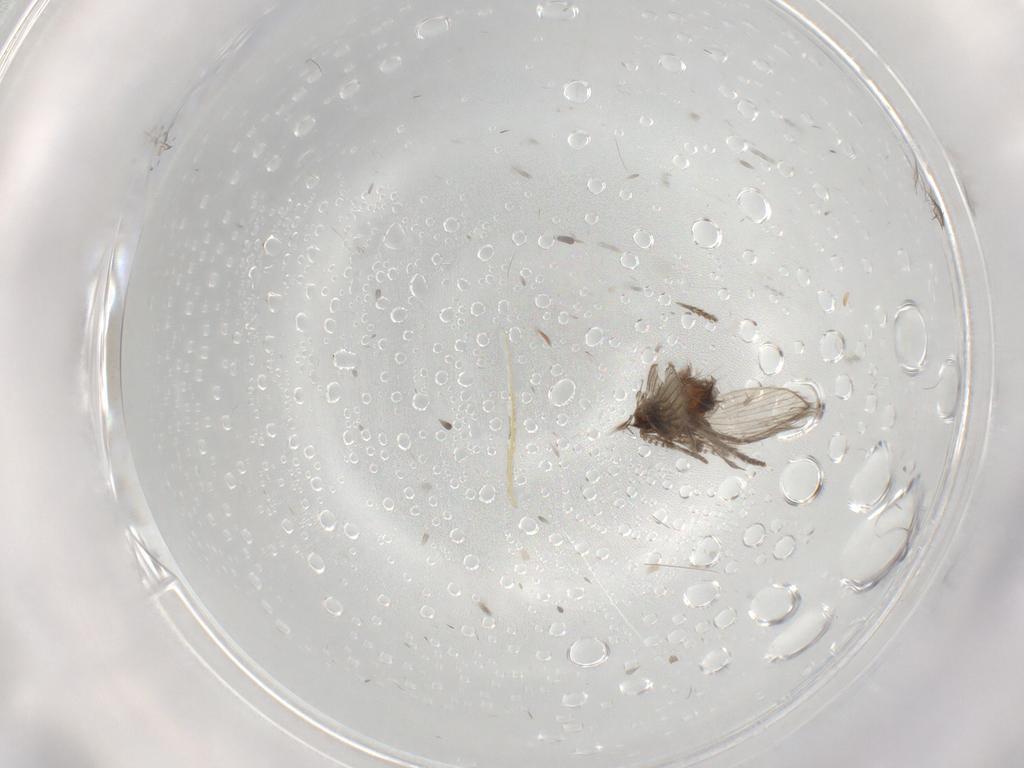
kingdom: Animalia
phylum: Arthropoda
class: Insecta
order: Diptera
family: Psychodidae
